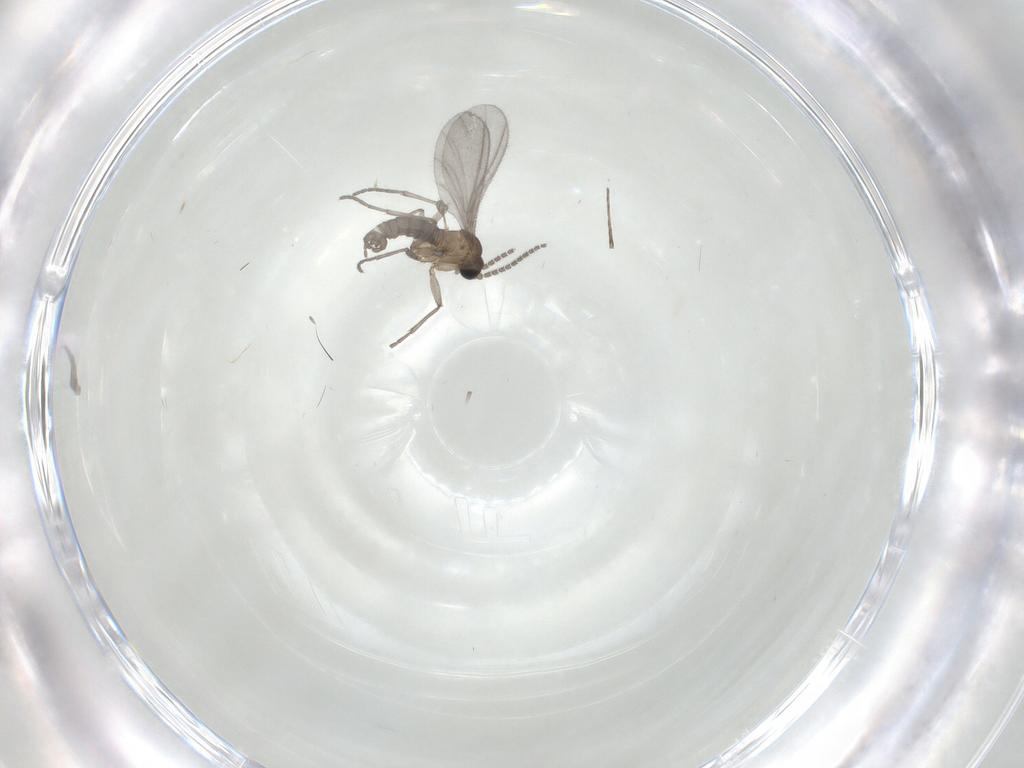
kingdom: Animalia
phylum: Arthropoda
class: Insecta
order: Diptera
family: Sciaridae
